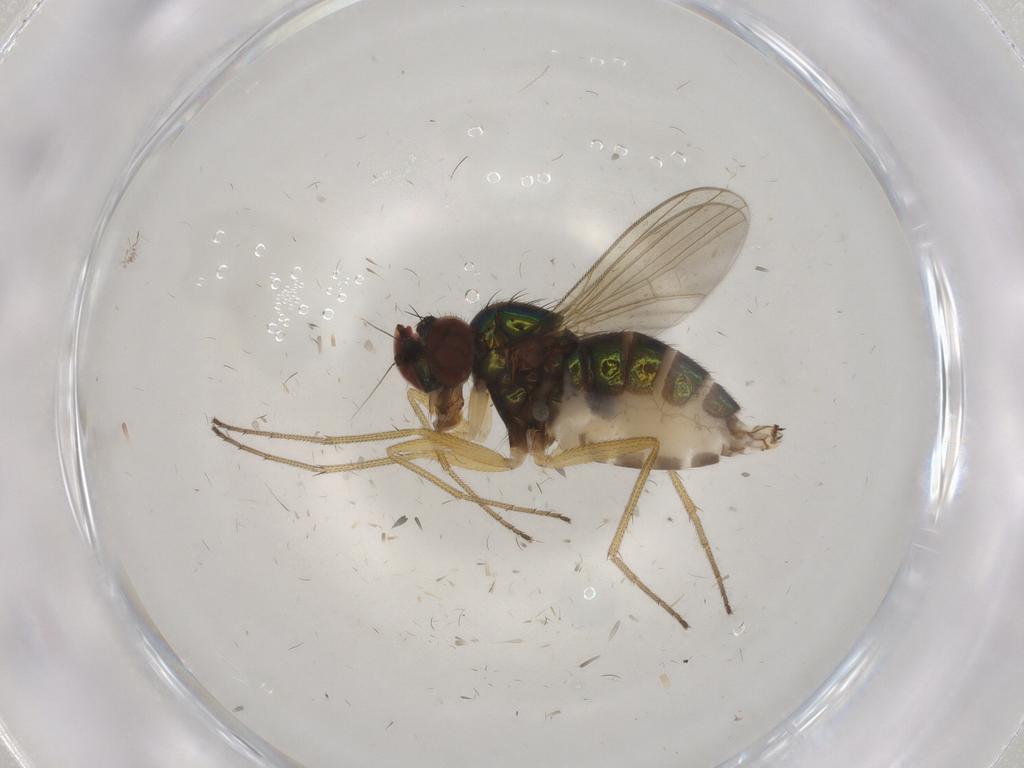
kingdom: Animalia
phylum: Arthropoda
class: Insecta
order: Diptera
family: Dolichopodidae
